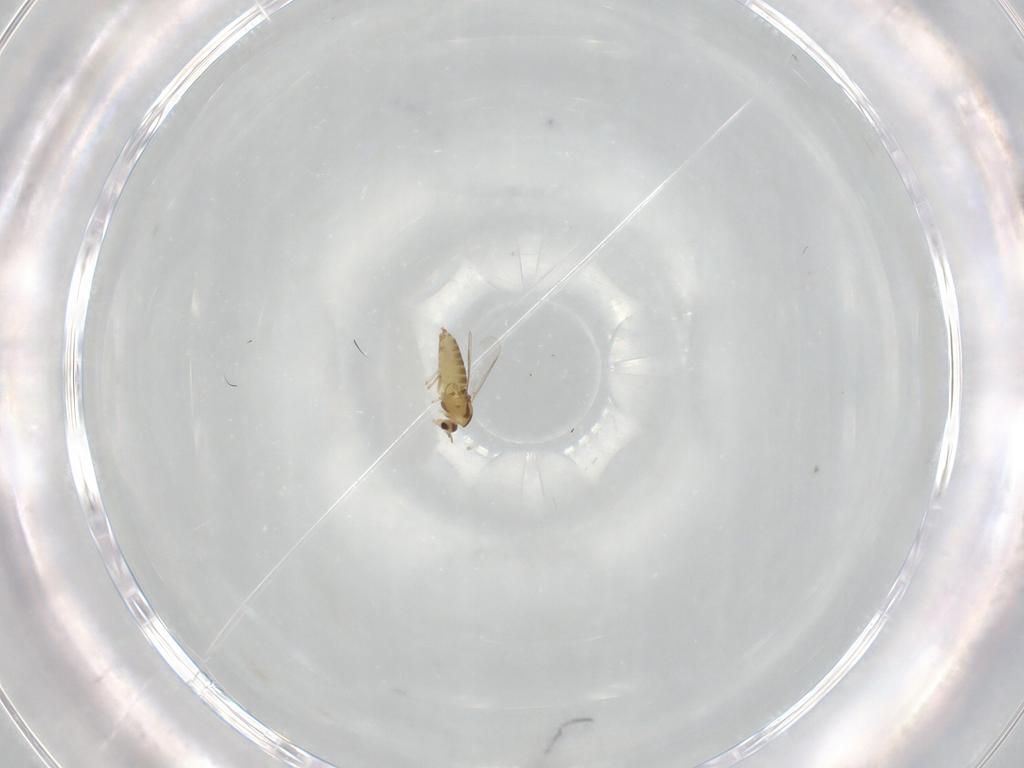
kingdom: Animalia
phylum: Arthropoda
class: Insecta
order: Diptera
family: Chironomidae
